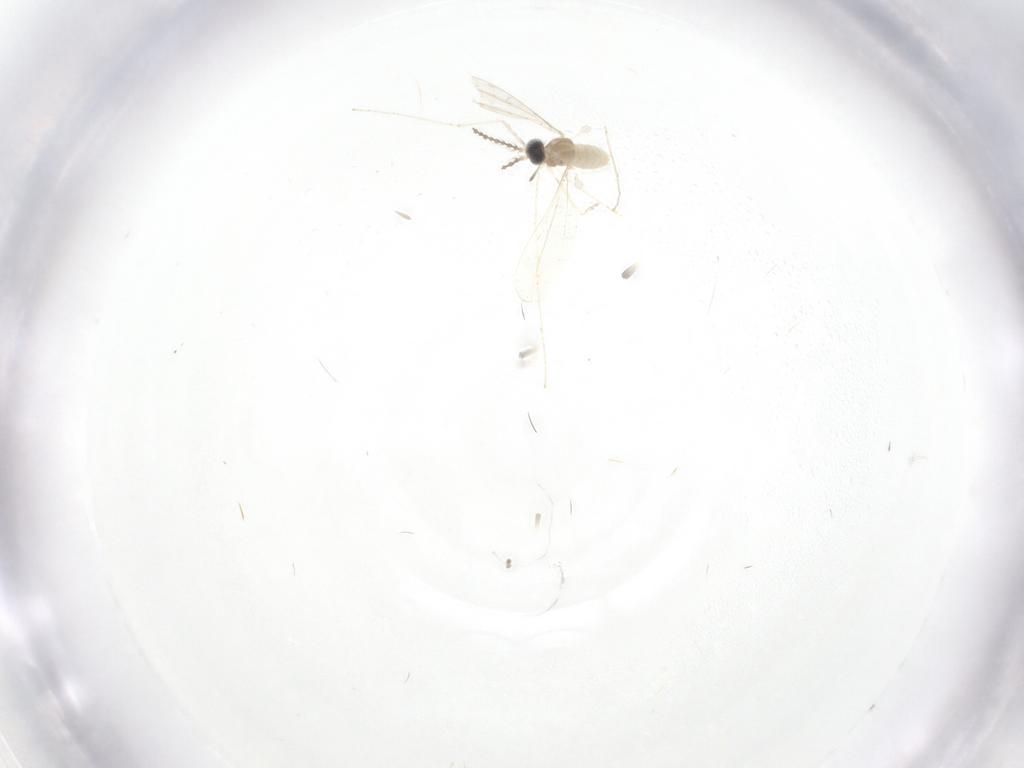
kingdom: Animalia
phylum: Arthropoda
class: Insecta
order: Diptera
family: Cecidomyiidae
